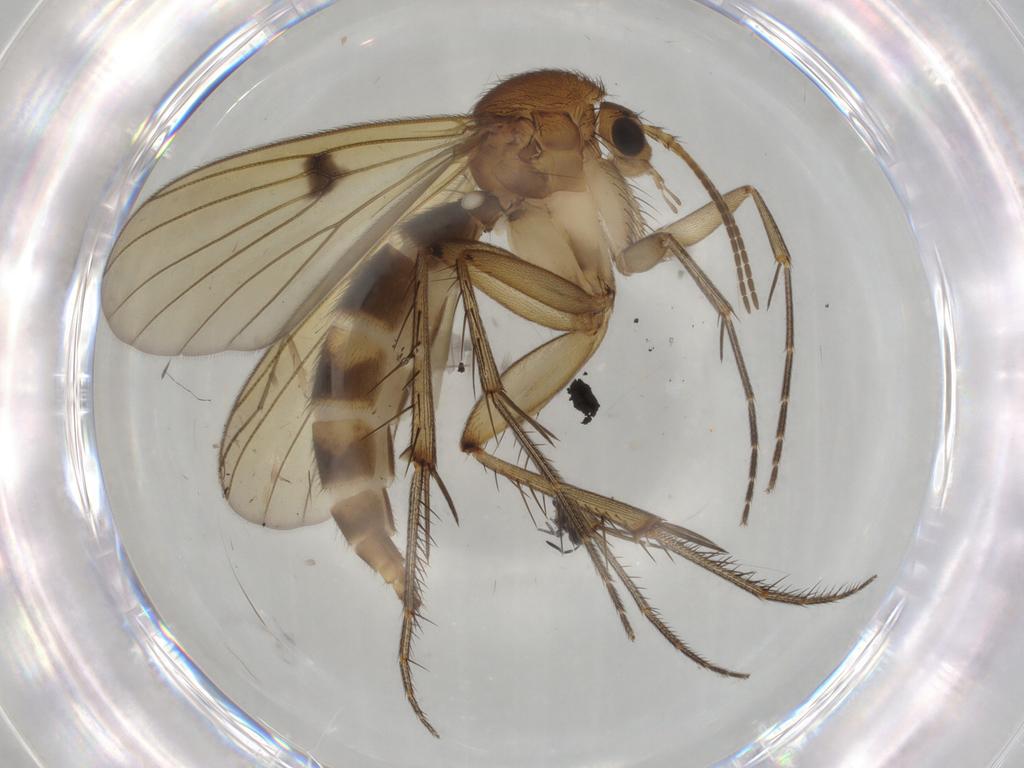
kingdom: Animalia
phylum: Arthropoda
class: Insecta
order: Diptera
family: Mycetophilidae
